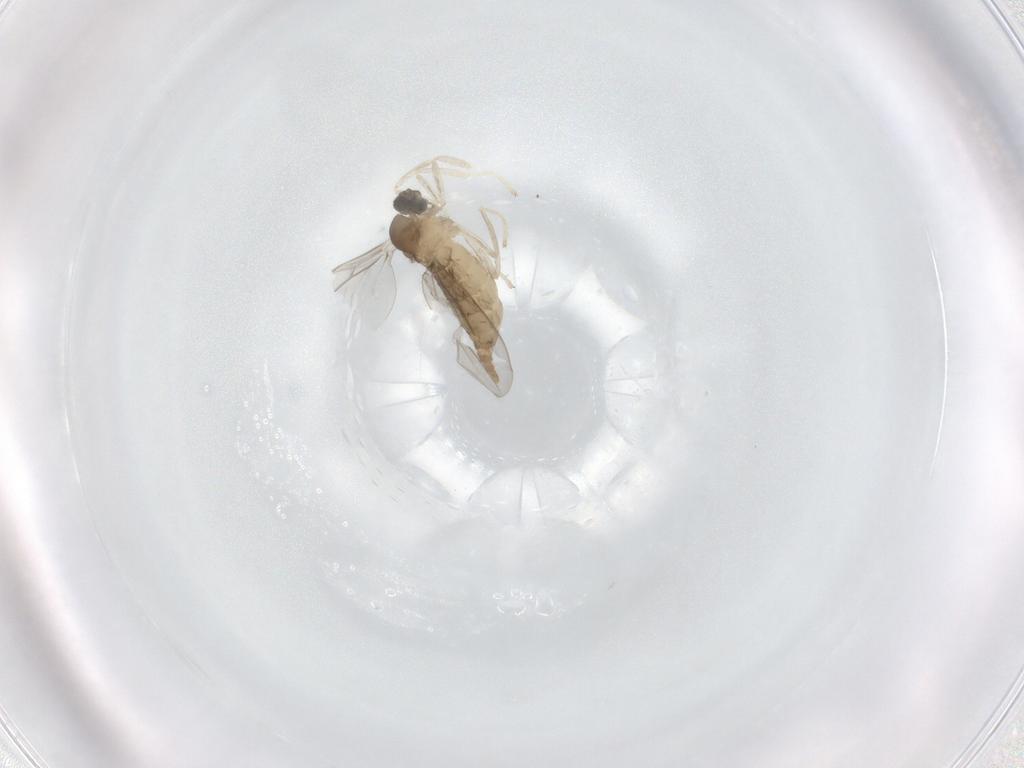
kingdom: Animalia
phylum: Arthropoda
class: Insecta
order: Diptera
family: Cecidomyiidae
